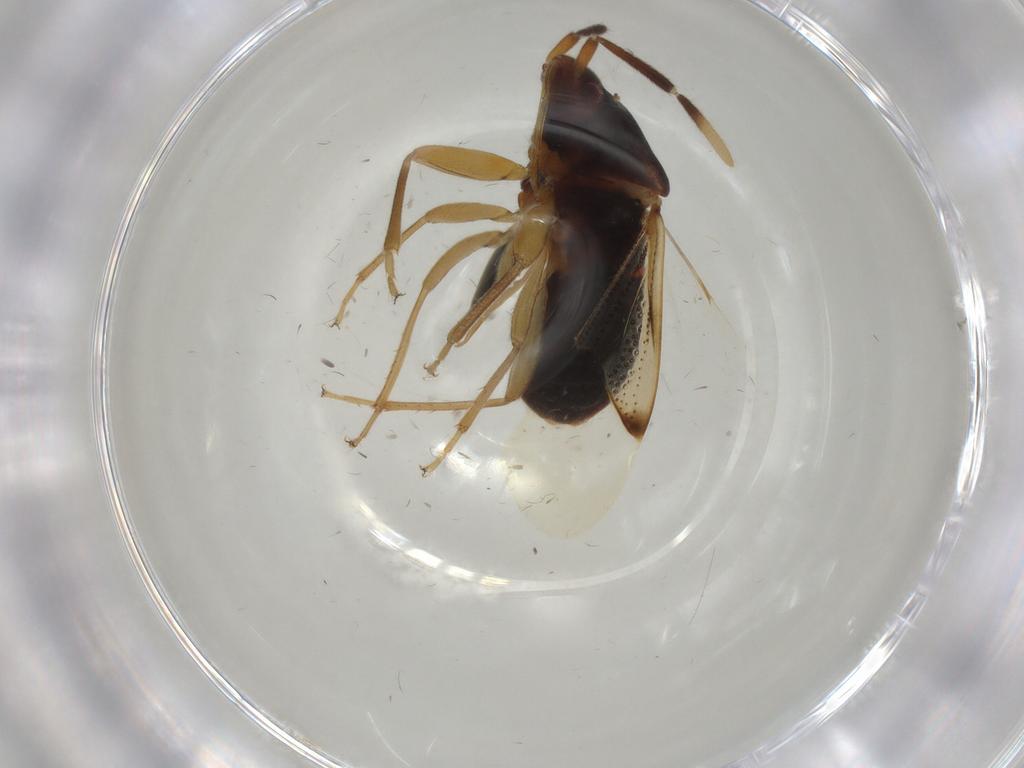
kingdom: Animalia
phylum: Arthropoda
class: Insecta
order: Hemiptera
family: Rhyparochromidae
